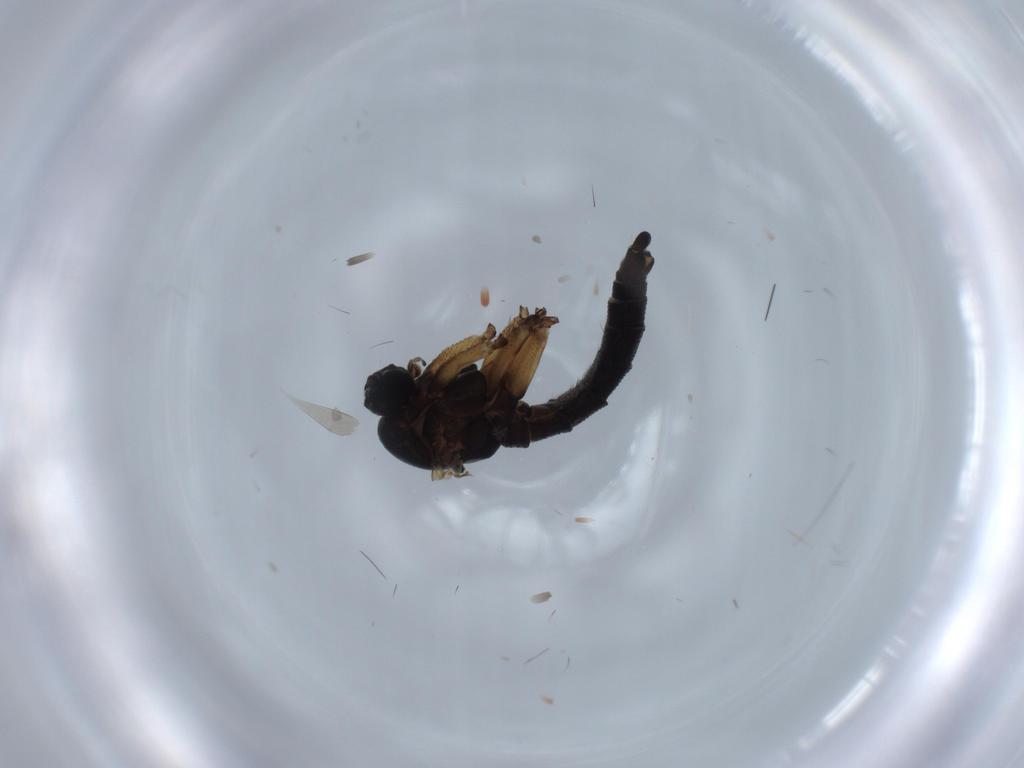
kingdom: Animalia
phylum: Arthropoda
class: Insecta
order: Diptera
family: Sciaridae
